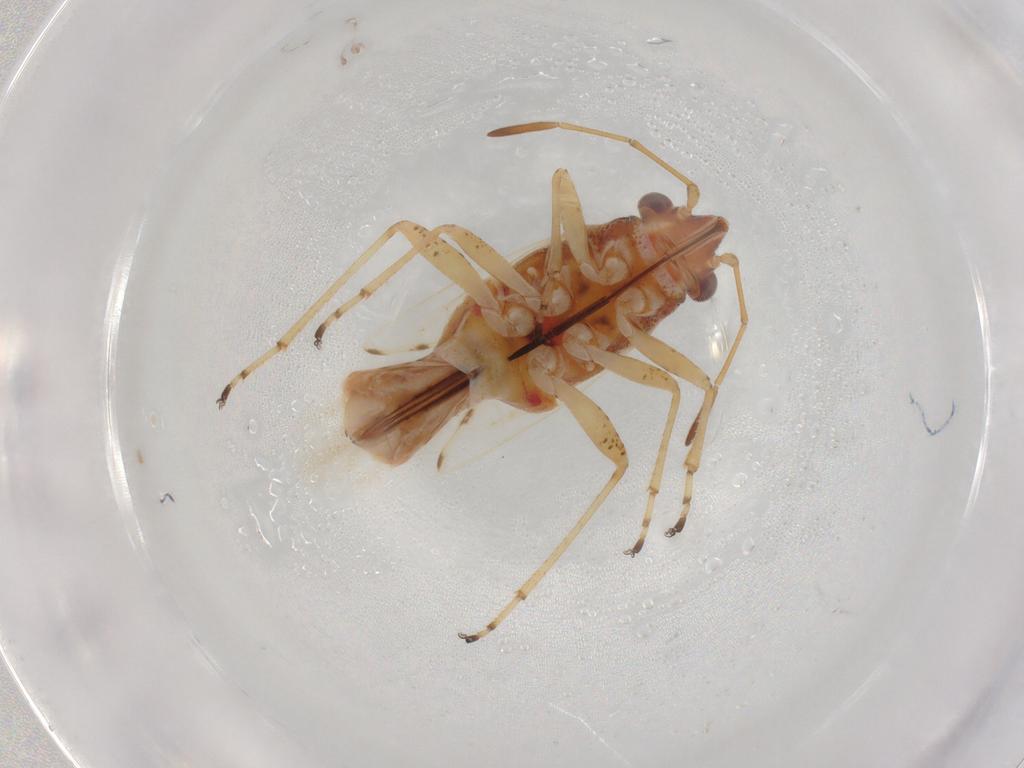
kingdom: Animalia
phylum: Arthropoda
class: Insecta
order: Hemiptera
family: Lygaeidae
